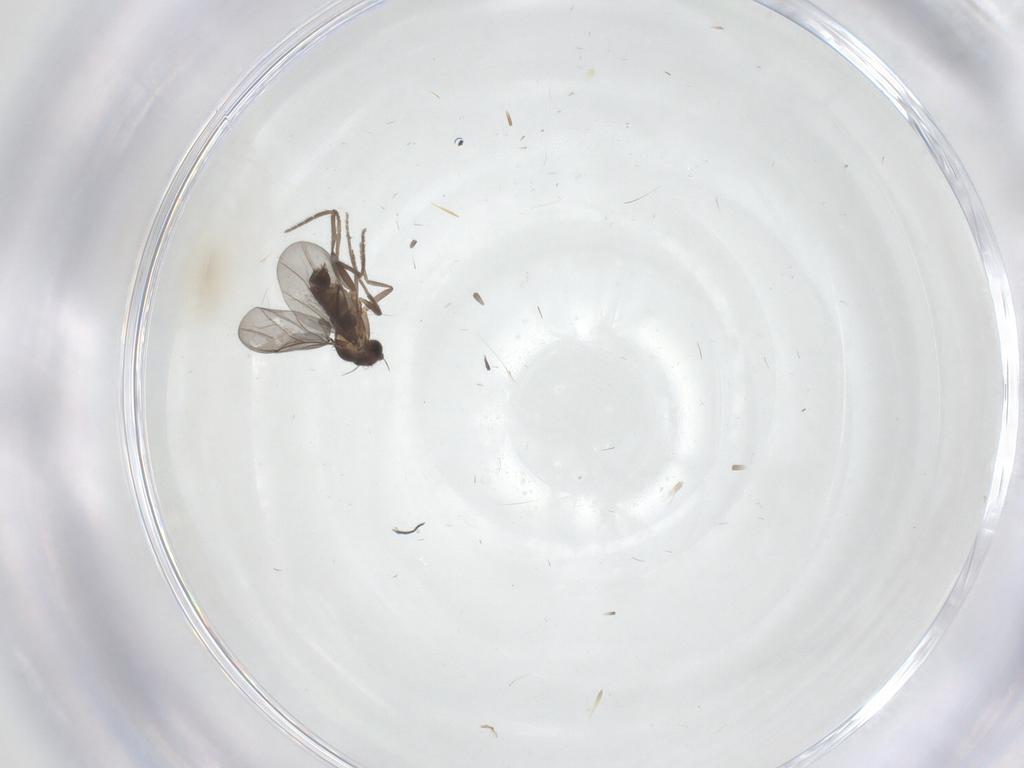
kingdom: Animalia
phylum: Arthropoda
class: Insecta
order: Diptera
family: Phoridae
